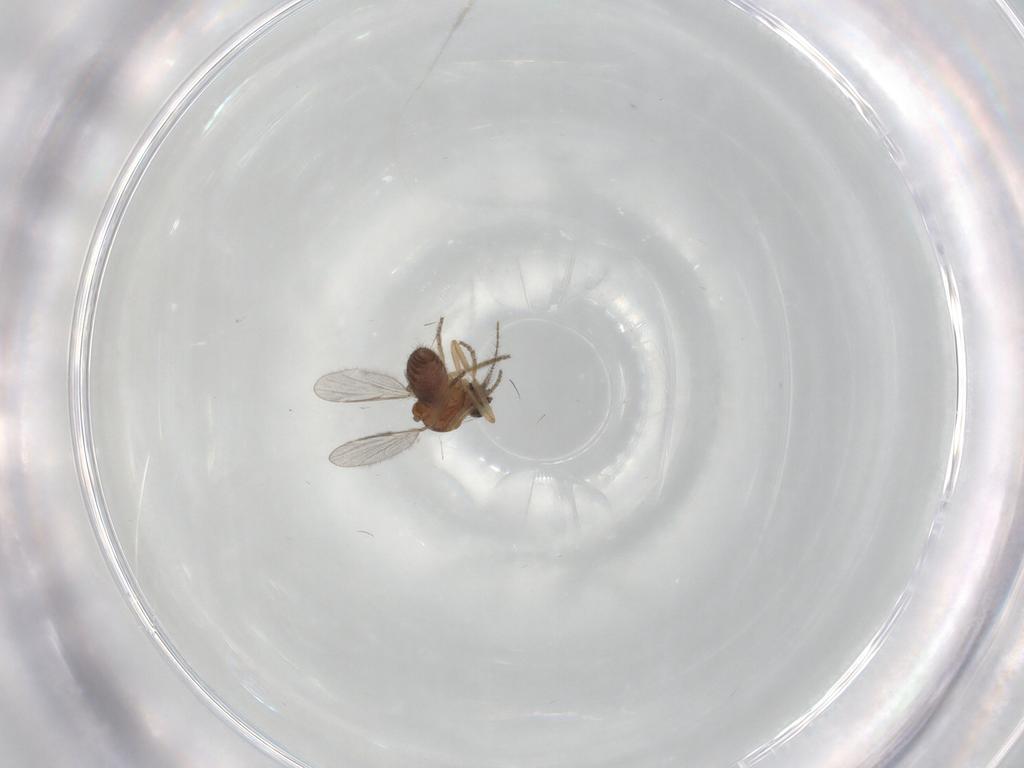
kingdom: Animalia
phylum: Arthropoda
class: Insecta
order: Diptera
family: Ceratopogonidae
